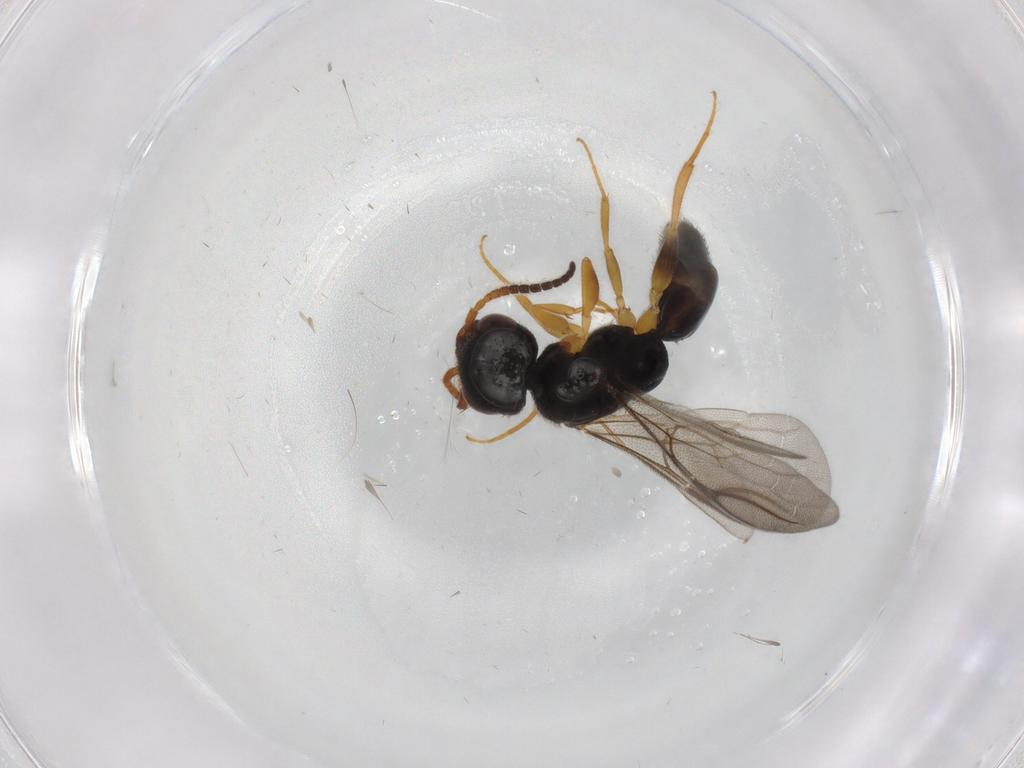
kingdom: Animalia
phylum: Arthropoda
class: Insecta
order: Hymenoptera
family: Bethylidae
